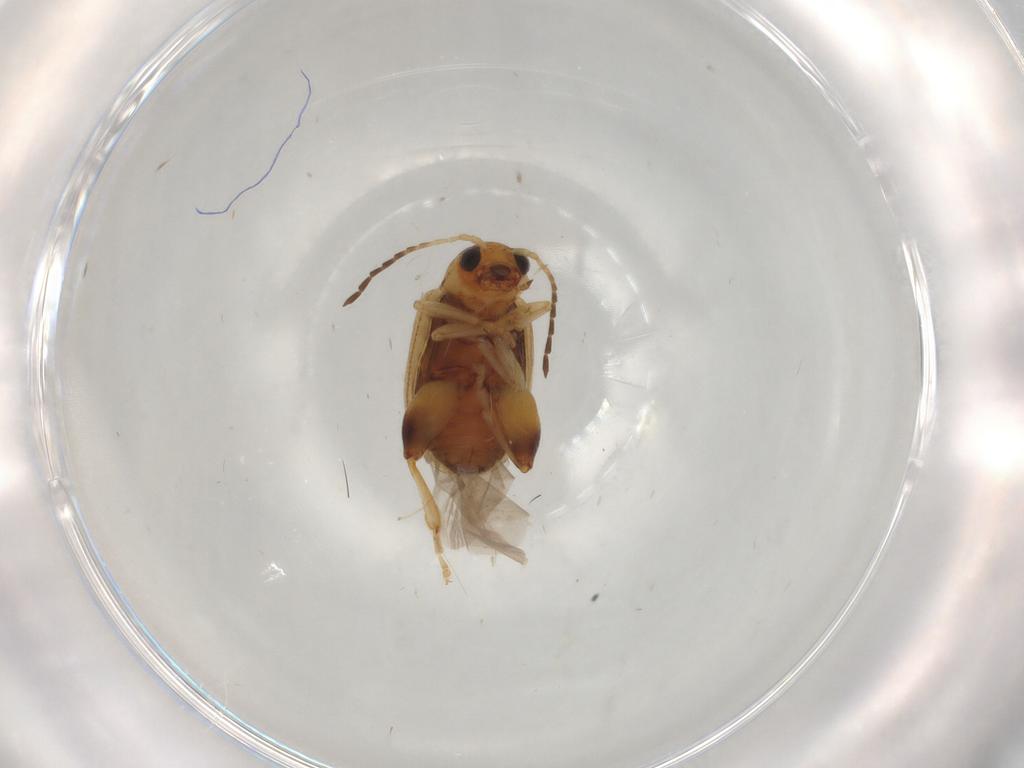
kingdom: Animalia
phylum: Arthropoda
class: Insecta
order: Coleoptera
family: Chrysomelidae
